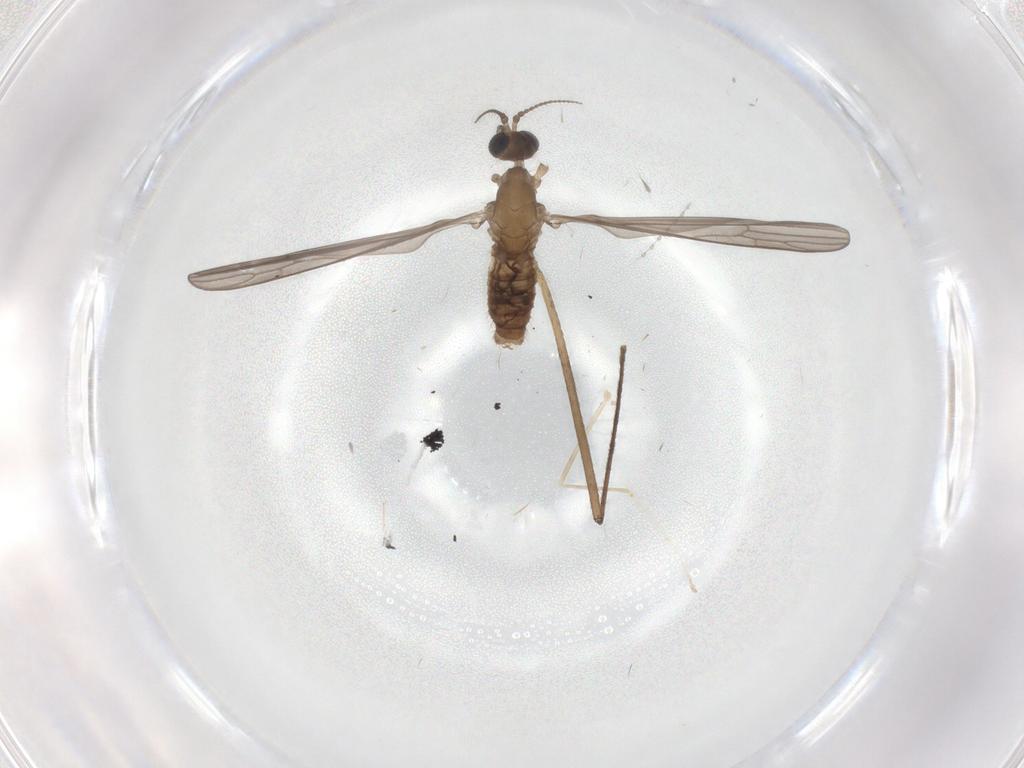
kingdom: Animalia
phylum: Arthropoda
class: Insecta
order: Diptera
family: Limoniidae
